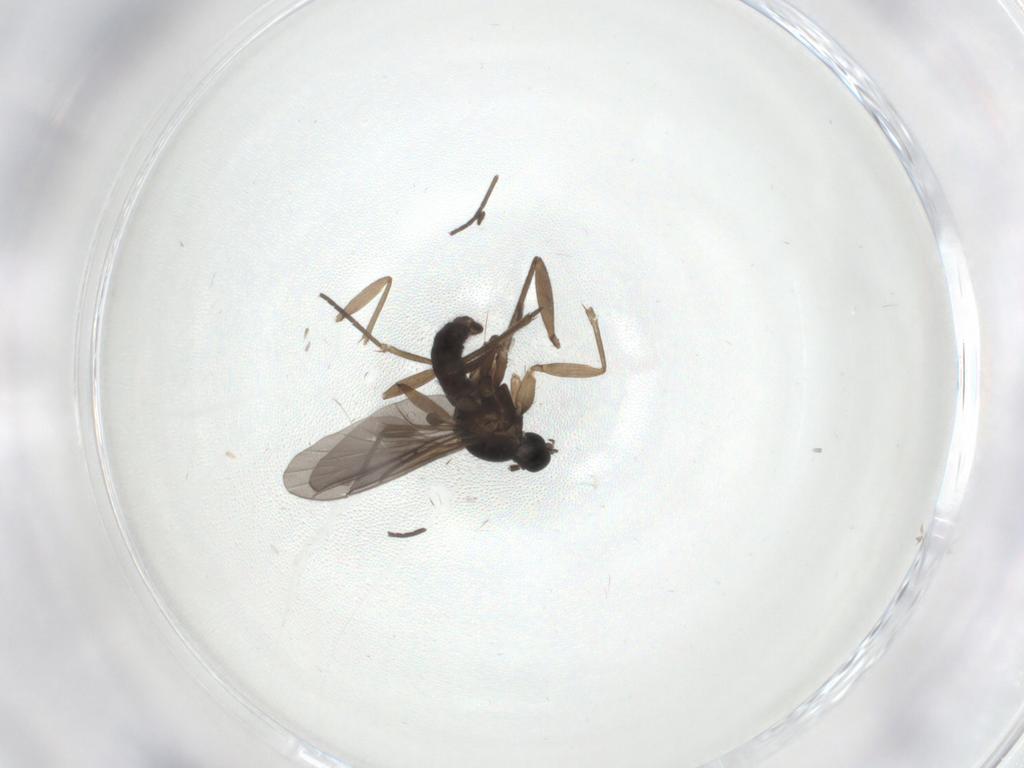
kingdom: Animalia
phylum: Arthropoda
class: Insecta
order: Diptera
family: Sciaridae
